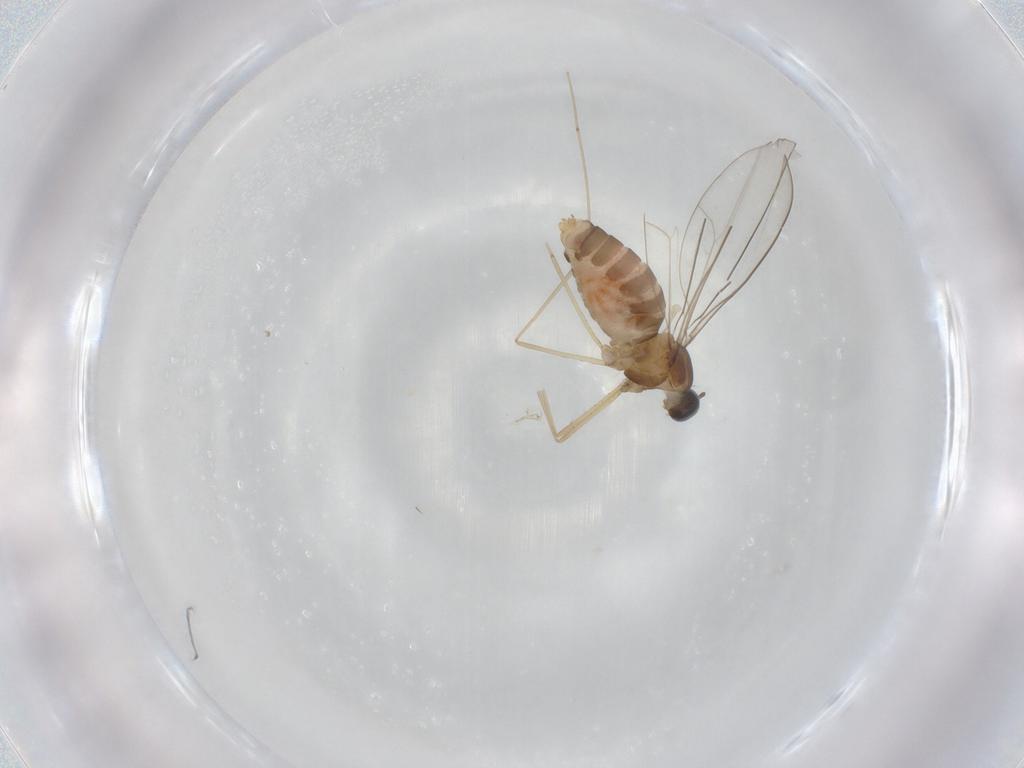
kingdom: Animalia
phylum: Arthropoda
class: Insecta
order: Diptera
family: Cecidomyiidae
